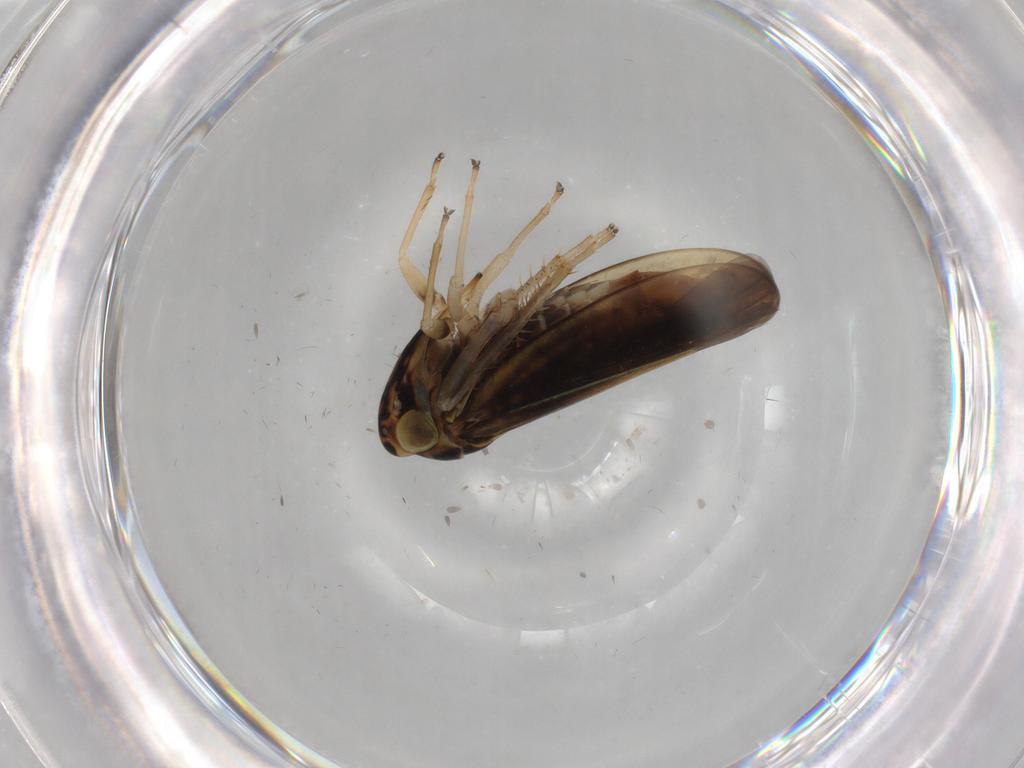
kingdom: Animalia
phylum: Arthropoda
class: Insecta
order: Hemiptera
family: Cicadellidae
